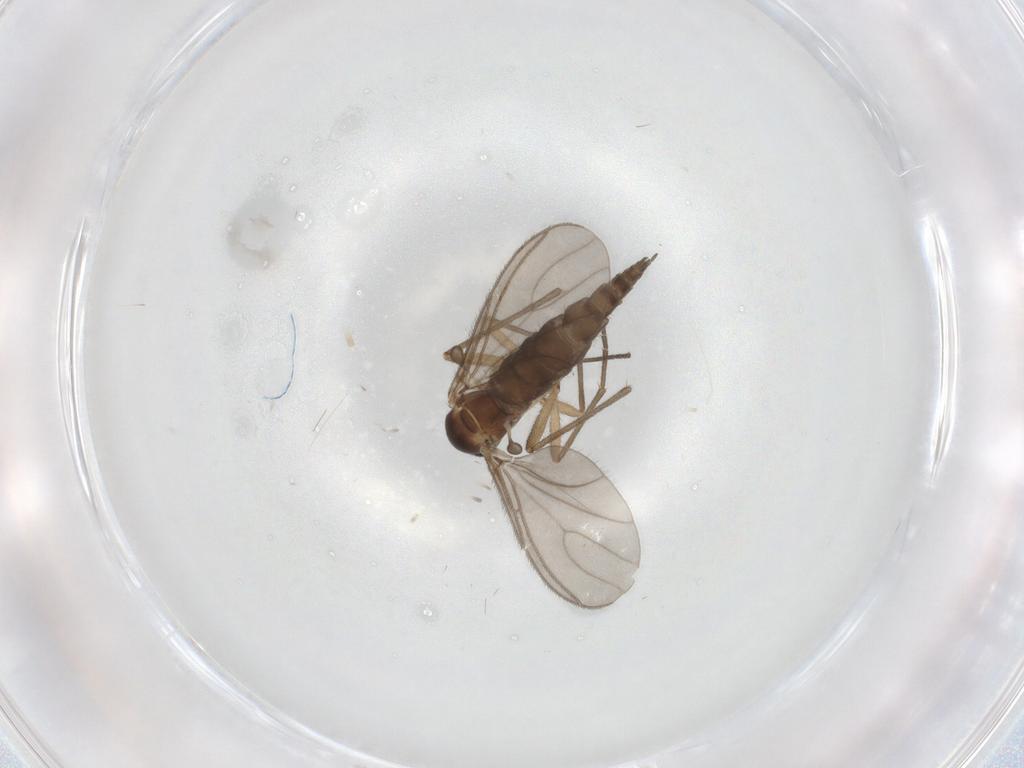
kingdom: Animalia
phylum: Arthropoda
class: Insecta
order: Diptera
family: Sciaridae
